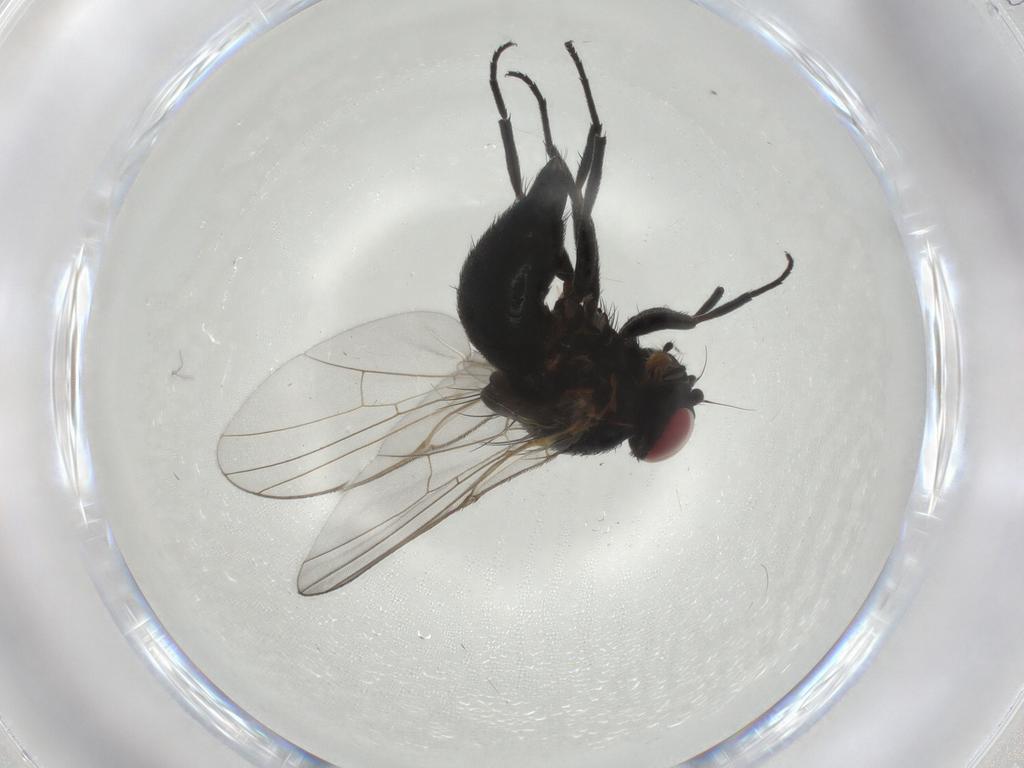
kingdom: Animalia
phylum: Arthropoda
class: Insecta
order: Diptera
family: Agromyzidae
